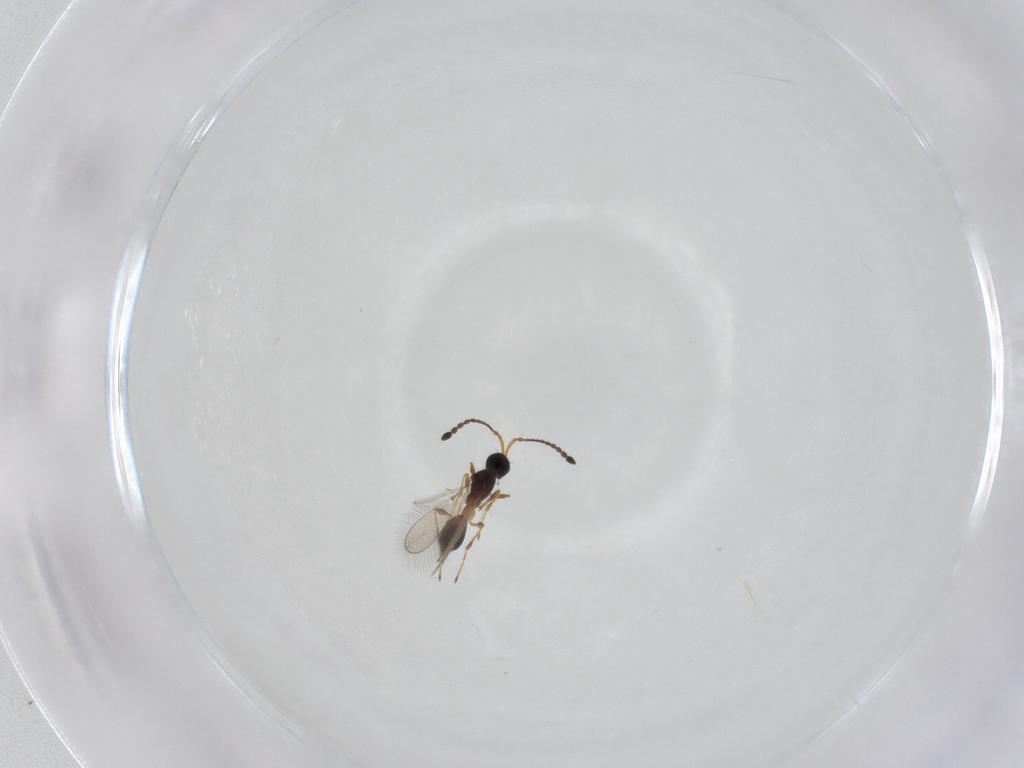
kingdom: Animalia
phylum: Arthropoda
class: Insecta
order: Hymenoptera
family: Diapriidae
